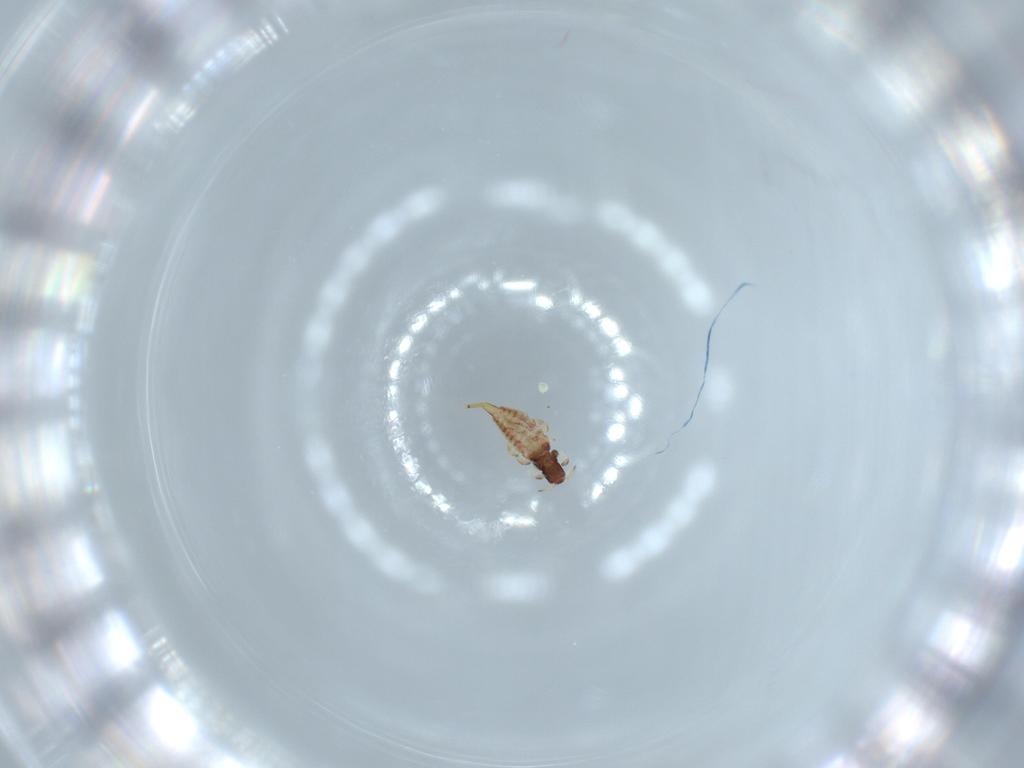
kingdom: Animalia
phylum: Arthropoda
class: Insecta
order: Thysanoptera
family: Phlaeothripidae
